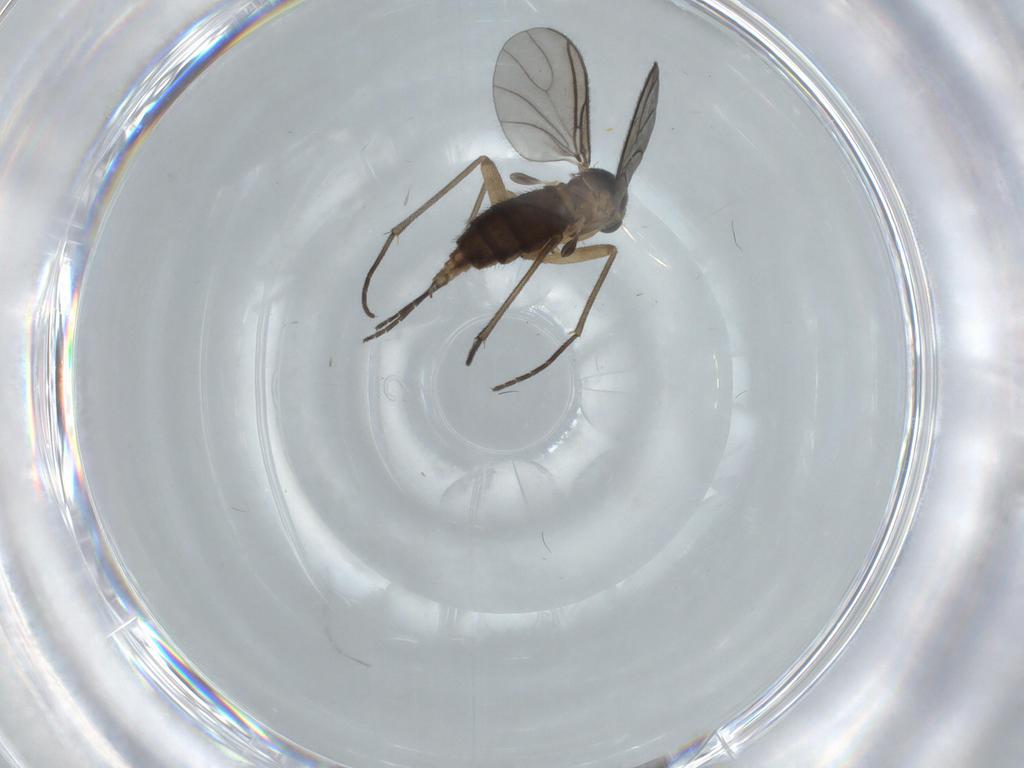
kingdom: Animalia
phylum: Arthropoda
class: Insecta
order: Diptera
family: Sciaridae
